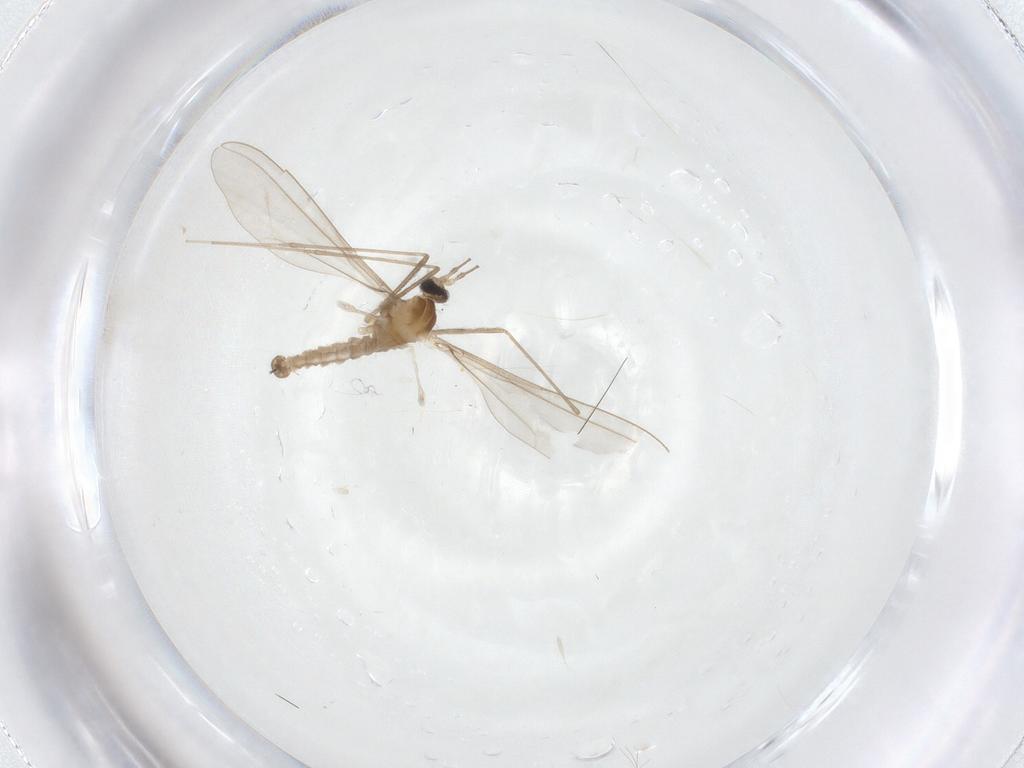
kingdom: Animalia
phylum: Arthropoda
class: Insecta
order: Diptera
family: Cecidomyiidae
